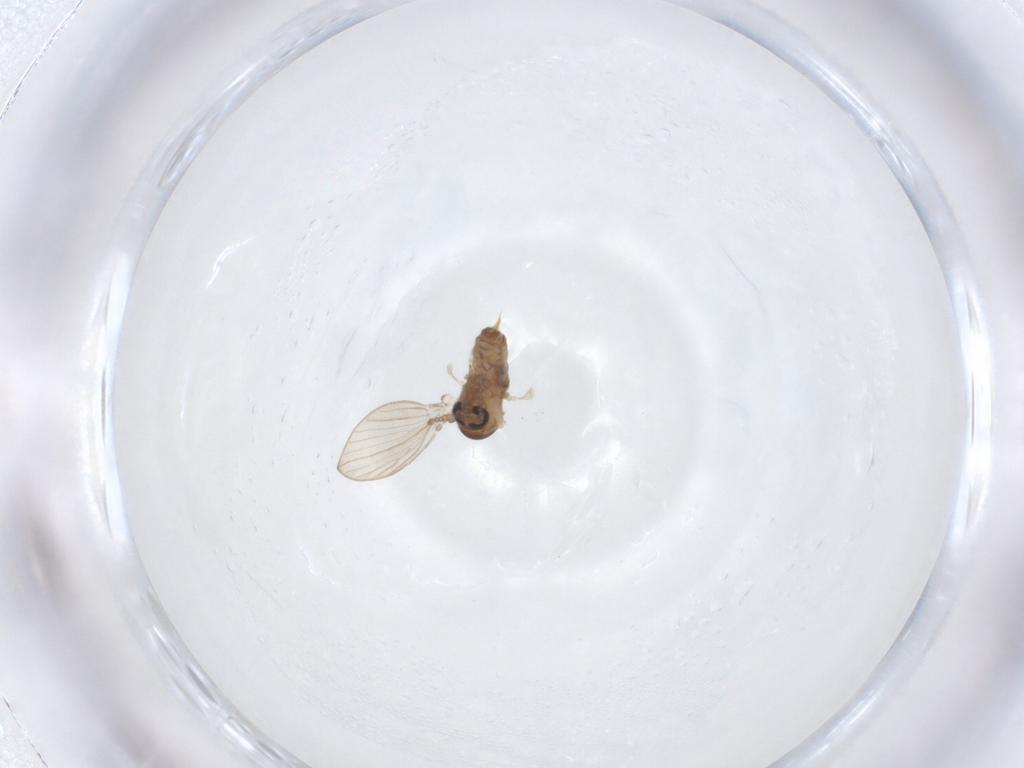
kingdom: Animalia
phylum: Arthropoda
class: Insecta
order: Diptera
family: Psychodidae
